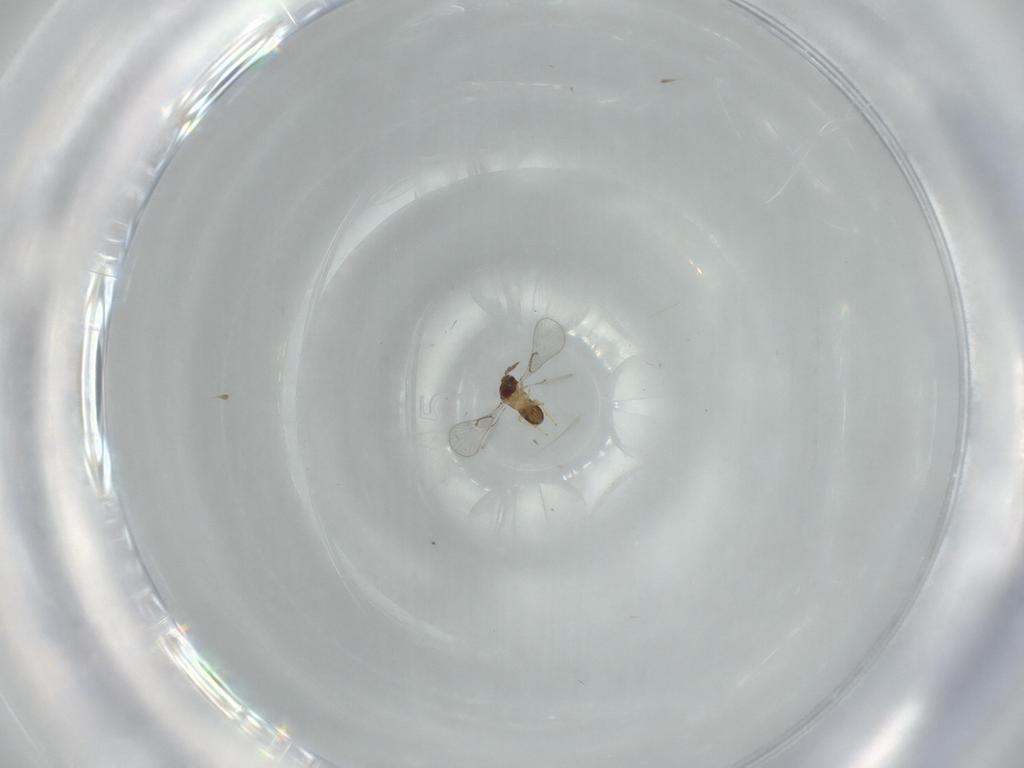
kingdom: Animalia
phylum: Arthropoda
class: Insecta
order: Hymenoptera
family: Trichogrammatidae
